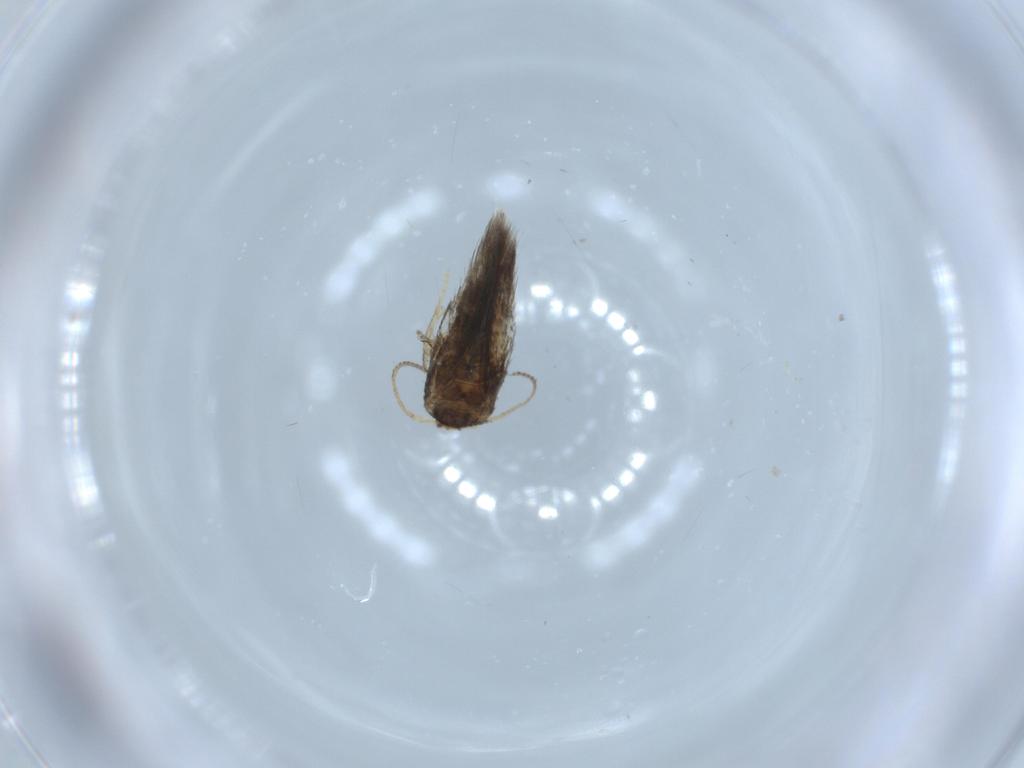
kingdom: Animalia
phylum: Arthropoda
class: Insecta
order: Lepidoptera
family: Nepticulidae
